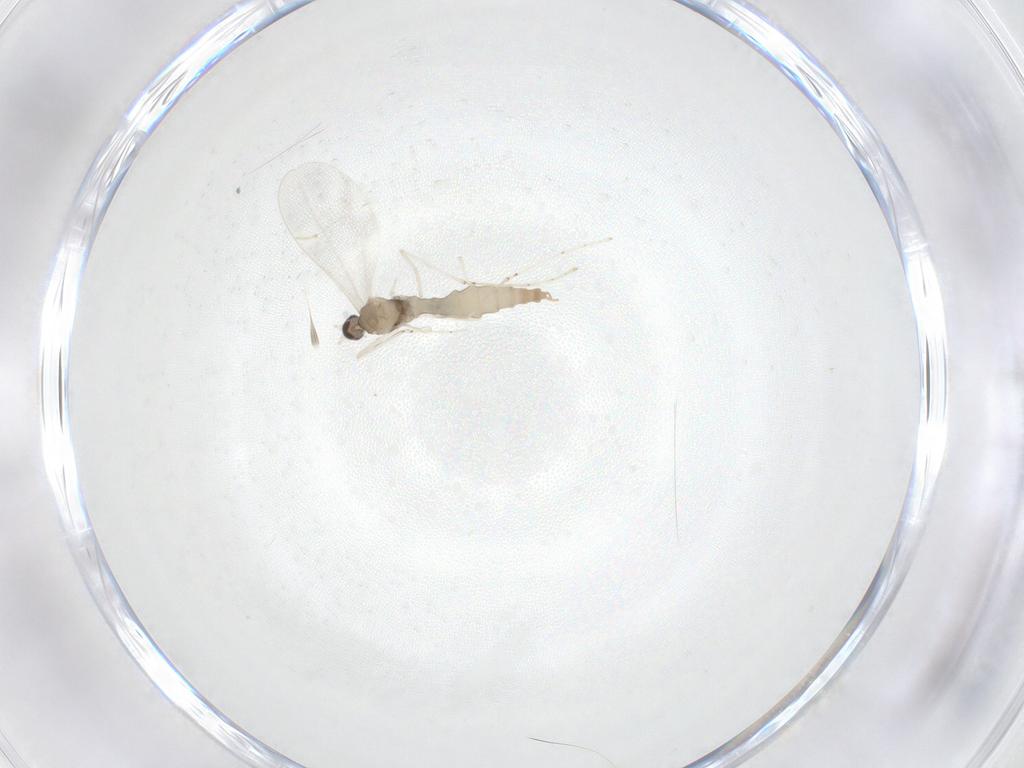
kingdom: Animalia
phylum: Arthropoda
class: Insecta
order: Diptera
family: Cecidomyiidae
